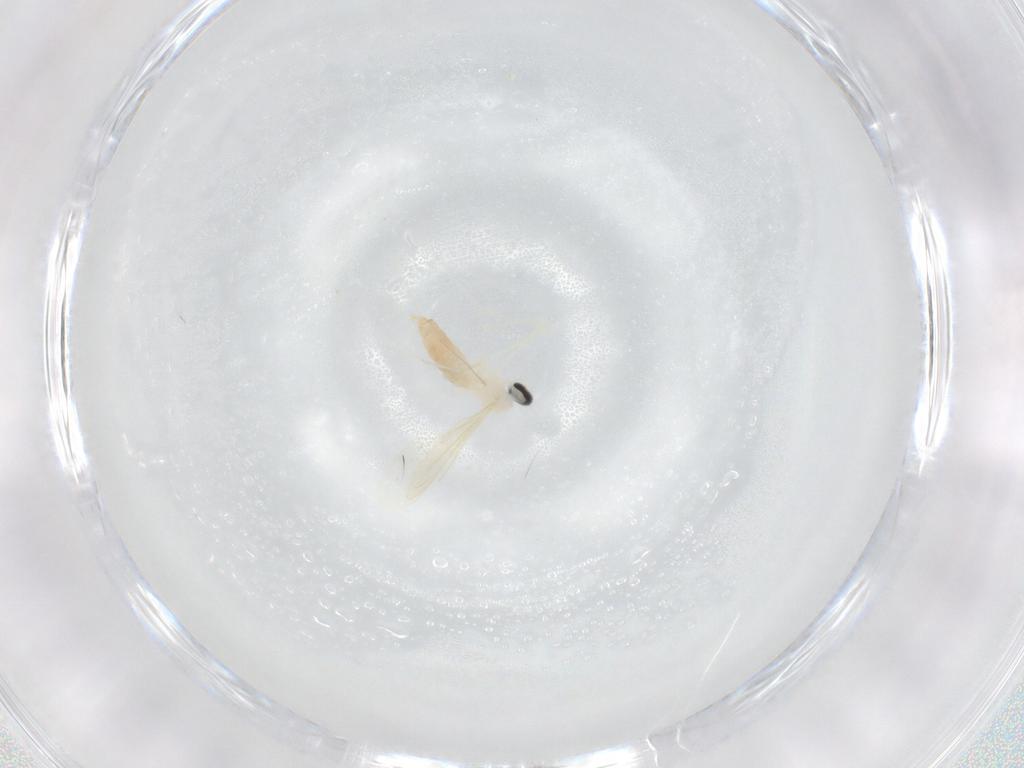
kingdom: Animalia
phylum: Arthropoda
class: Insecta
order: Diptera
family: Cecidomyiidae
